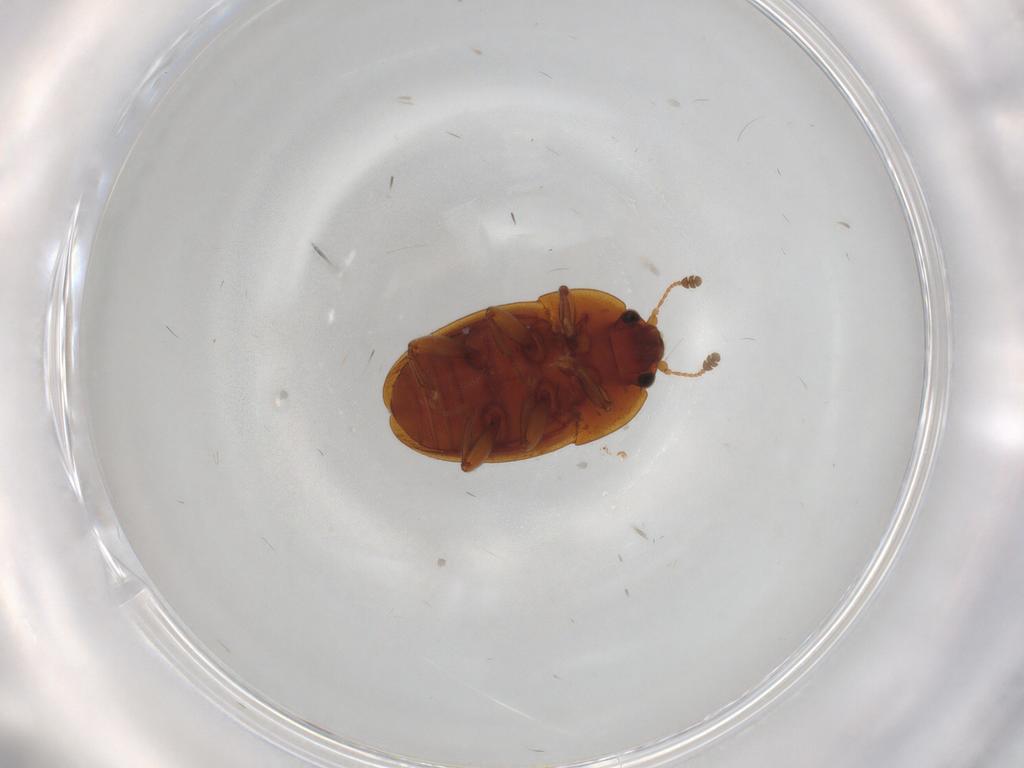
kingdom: Animalia
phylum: Arthropoda
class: Insecta
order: Coleoptera
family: Nitidulidae
